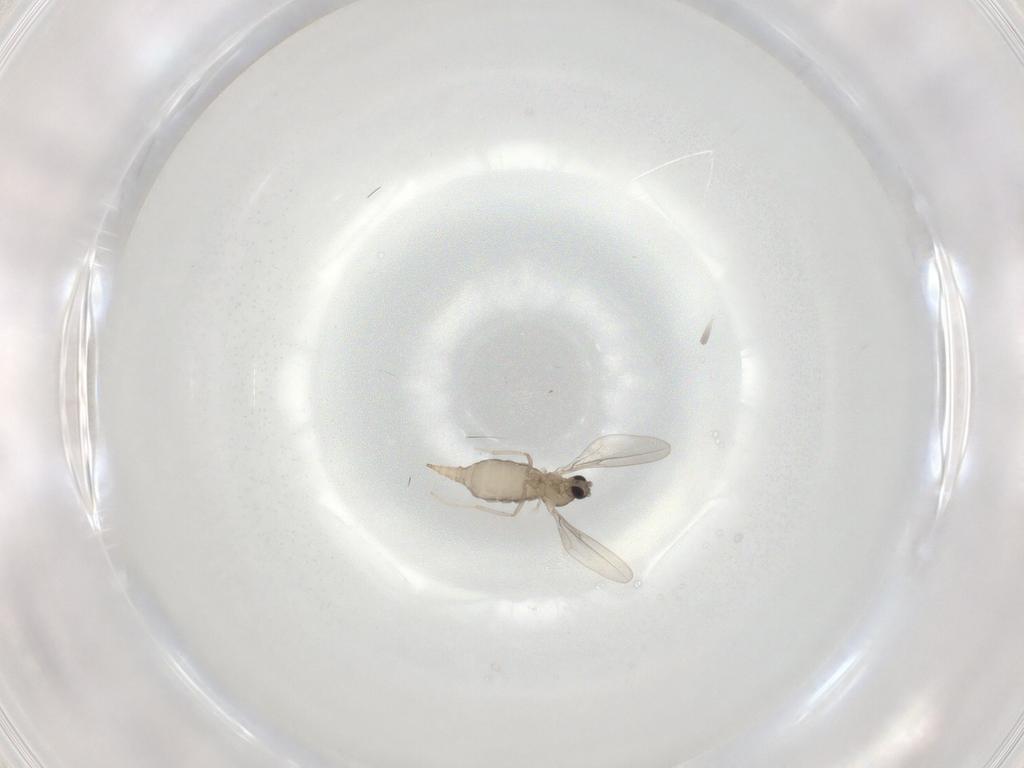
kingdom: Animalia
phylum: Arthropoda
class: Insecta
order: Diptera
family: Cecidomyiidae
